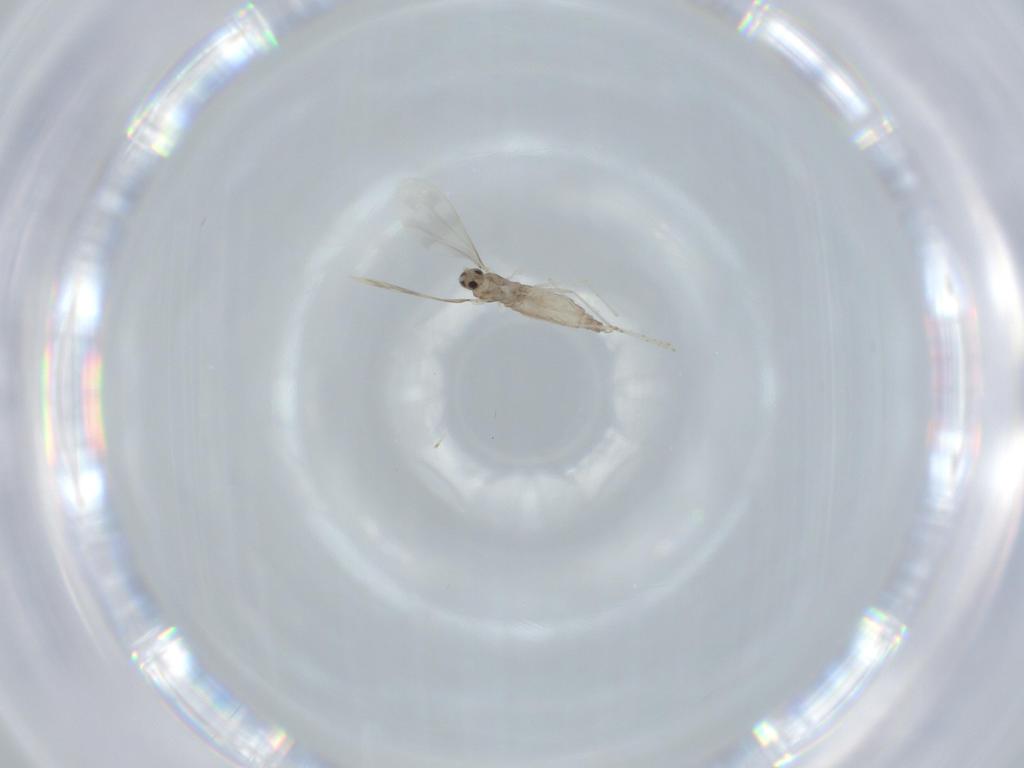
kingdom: Animalia
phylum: Arthropoda
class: Insecta
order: Diptera
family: Cecidomyiidae
